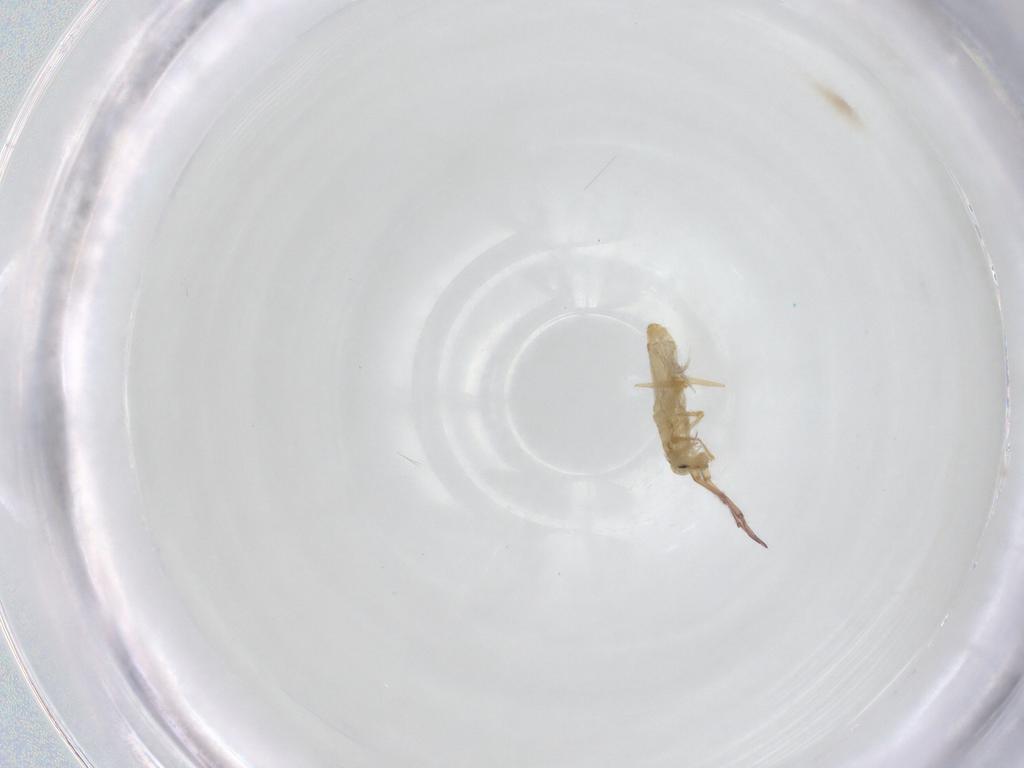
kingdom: Animalia
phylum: Arthropoda
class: Collembola
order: Entomobryomorpha
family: Entomobryidae
